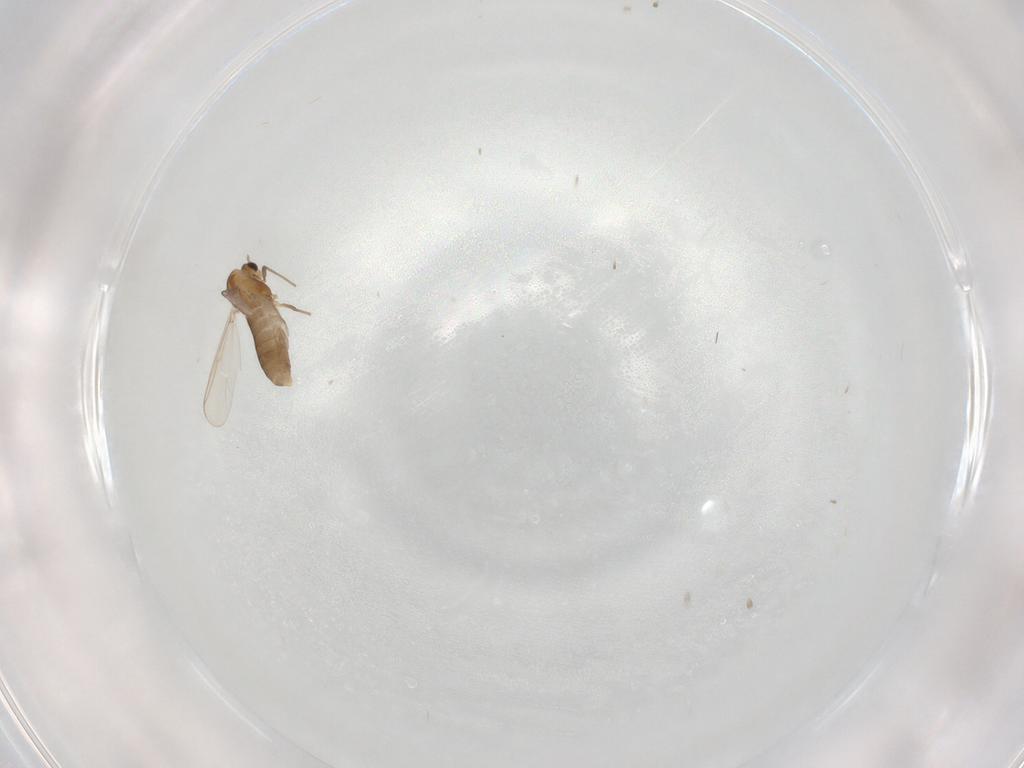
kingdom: Animalia
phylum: Arthropoda
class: Insecta
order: Diptera
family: Chironomidae
